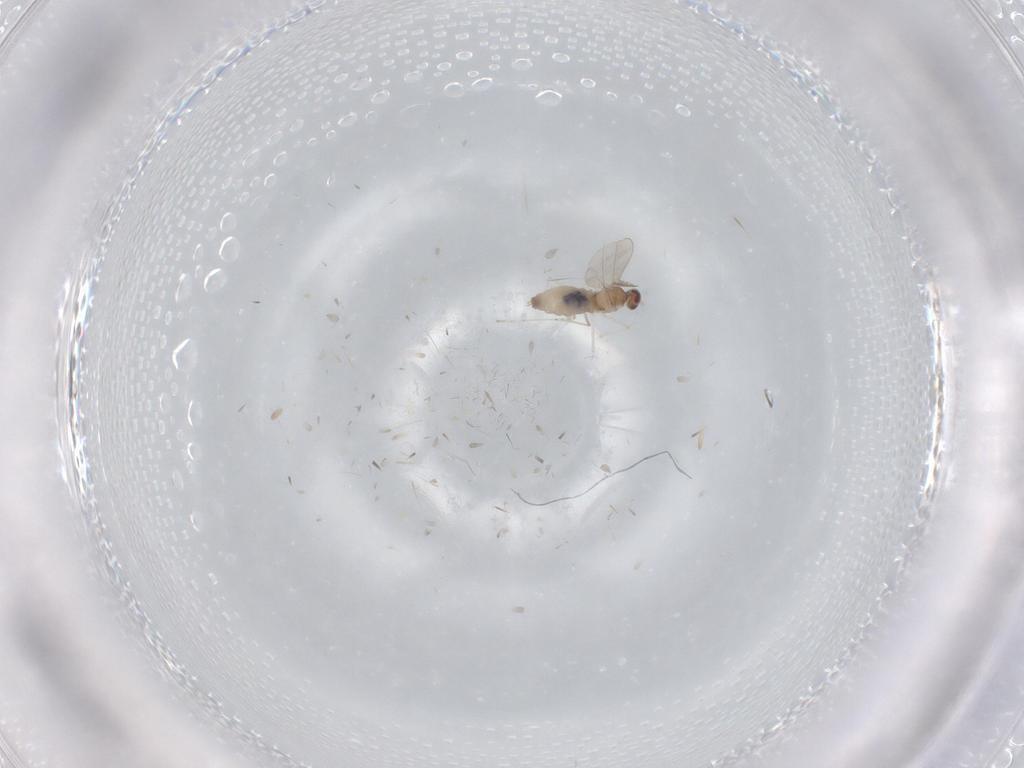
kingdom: Animalia
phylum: Arthropoda
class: Insecta
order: Diptera
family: Cecidomyiidae
